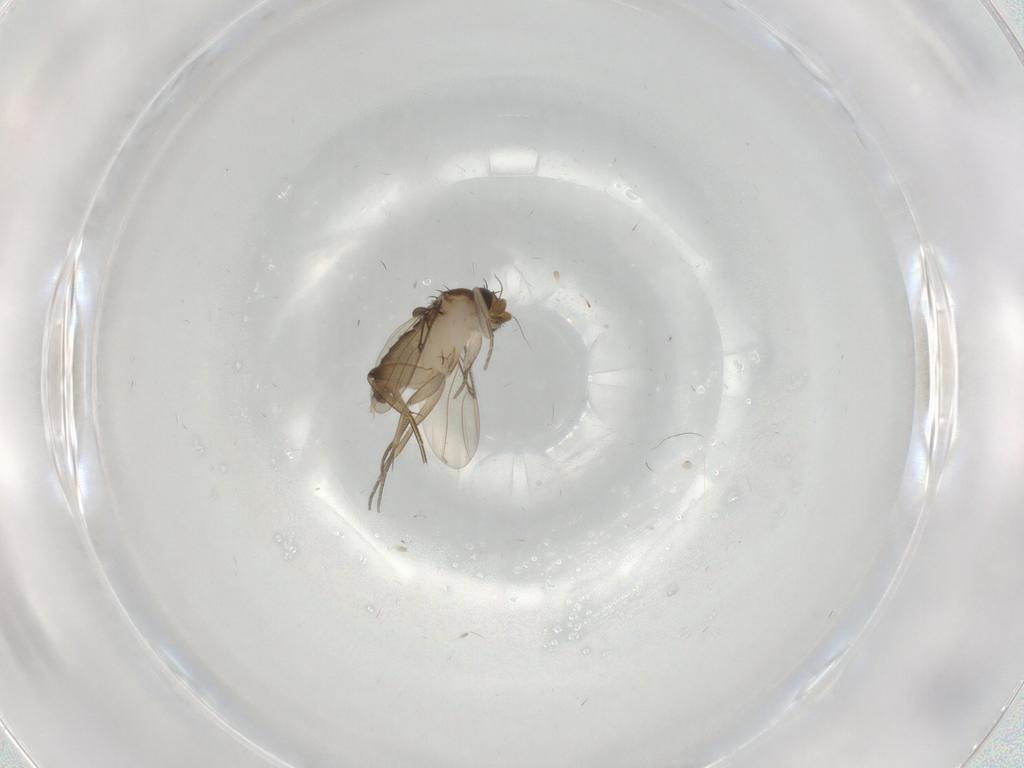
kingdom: Animalia
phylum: Arthropoda
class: Insecta
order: Diptera
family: Phoridae
